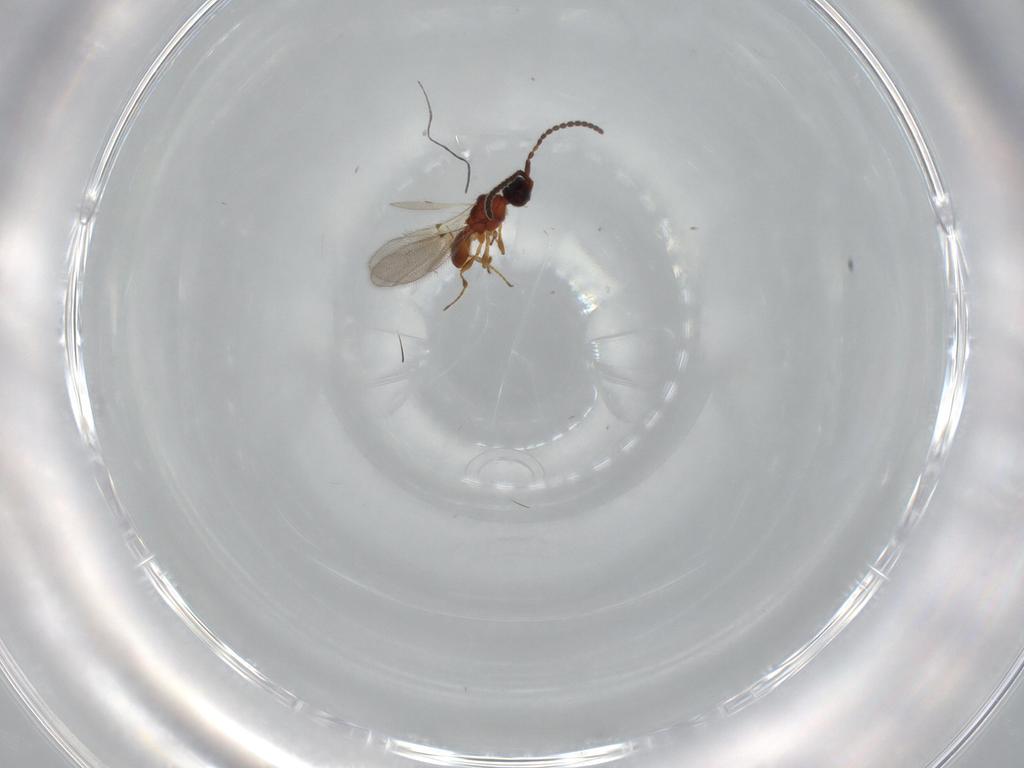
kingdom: Animalia
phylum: Arthropoda
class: Insecta
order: Hymenoptera
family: Diapriidae
